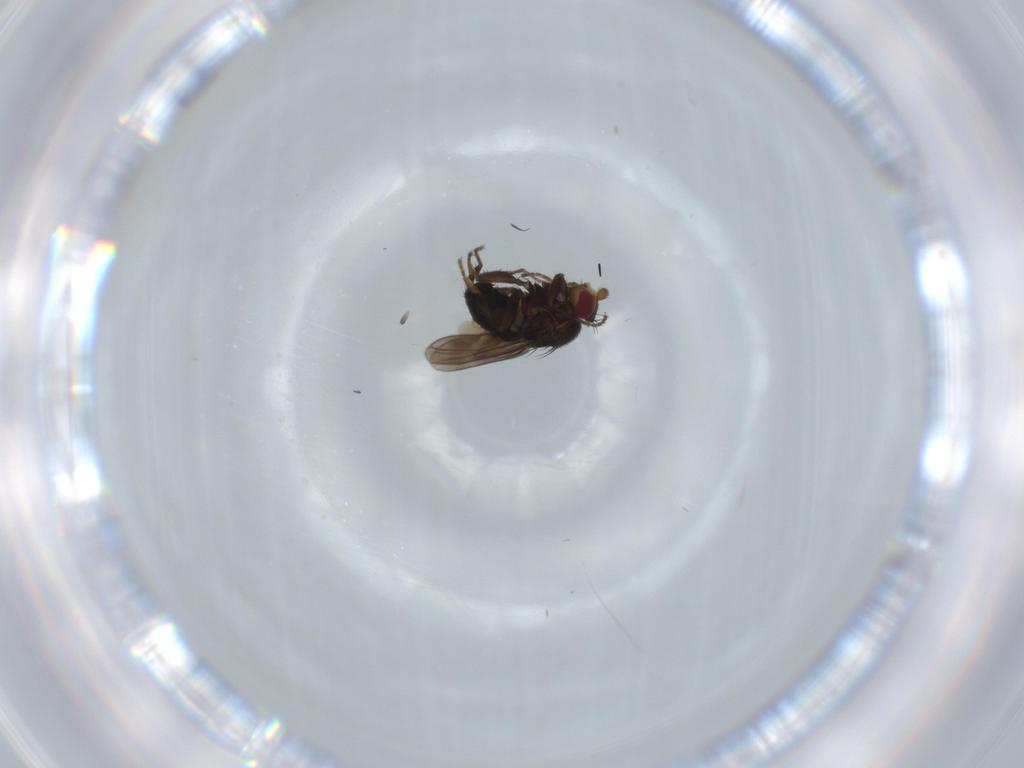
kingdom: Animalia
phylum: Arthropoda
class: Insecta
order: Diptera
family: Sphaeroceridae
